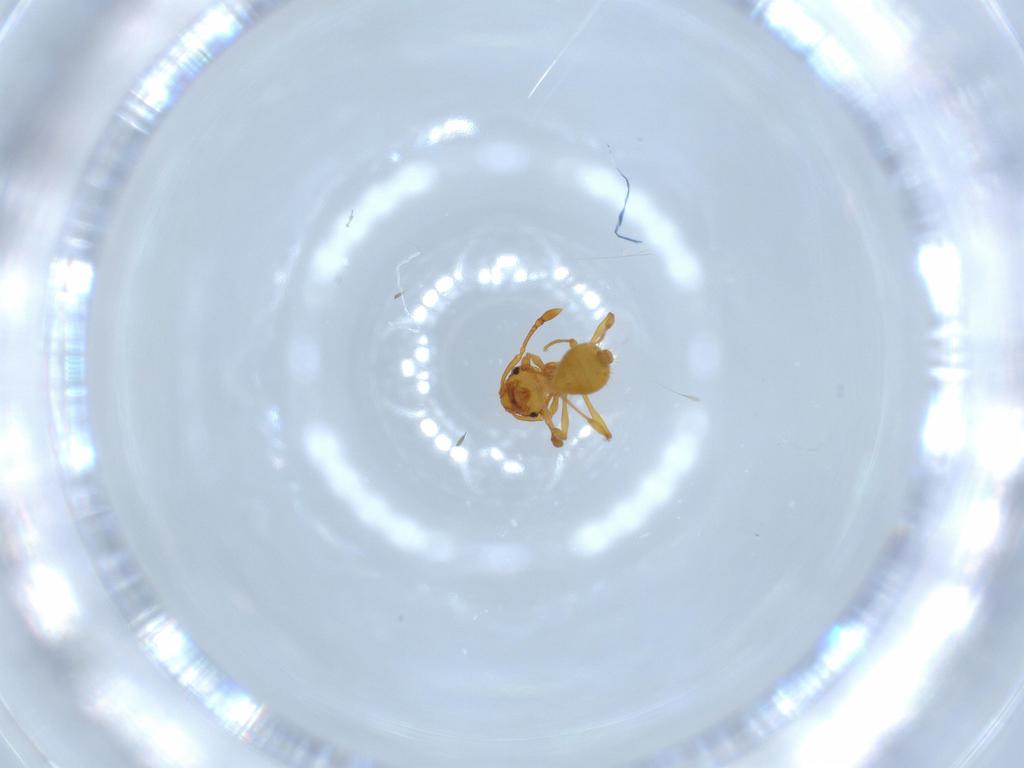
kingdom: Animalia
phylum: Arthropoda
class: Insecta
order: Hymenoptera
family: Formicidae
